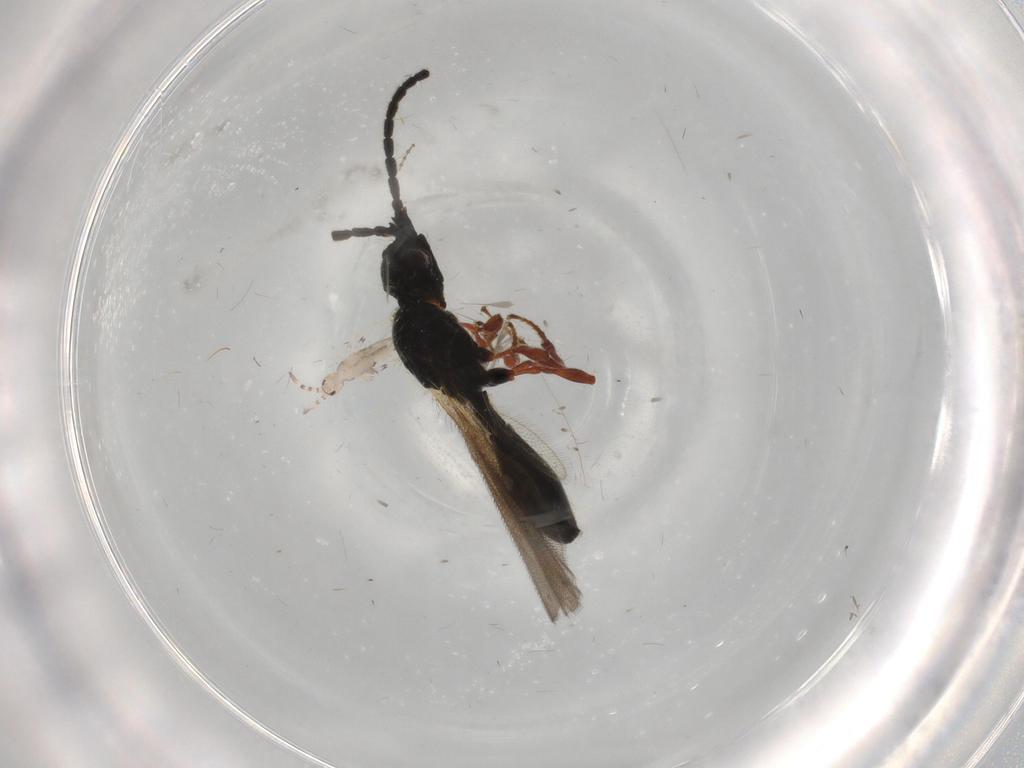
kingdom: Animalia
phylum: Arthropoda
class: Insecta
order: Hymenoptera
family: Diapriidae
